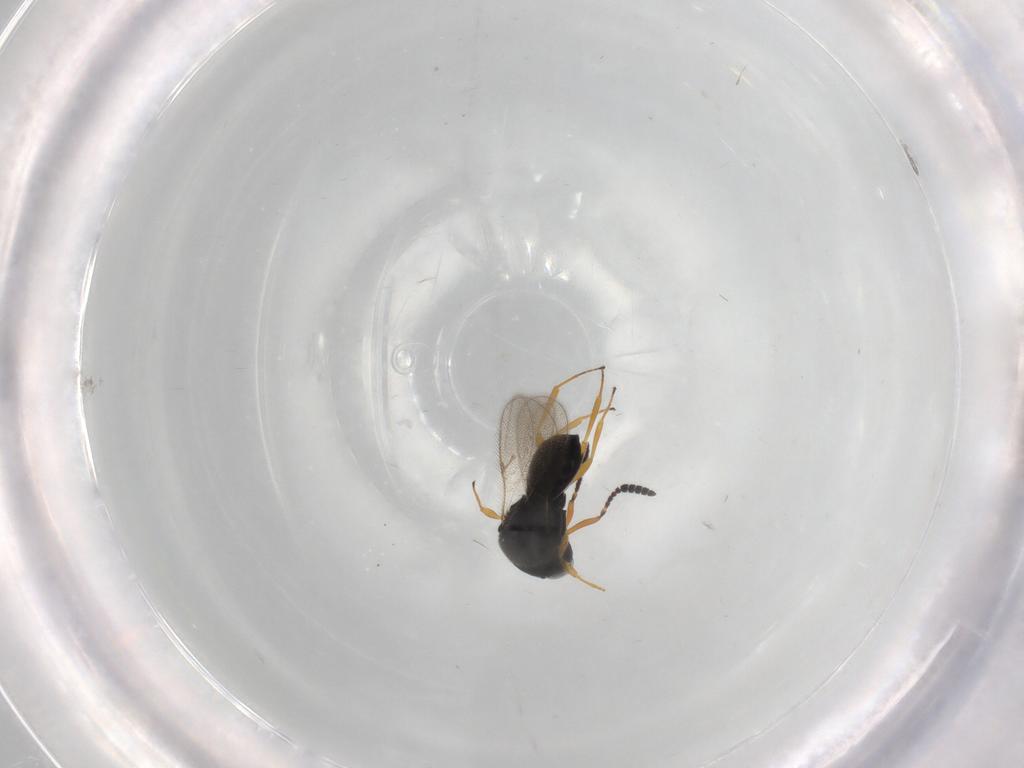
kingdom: Animalia
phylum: Arthropoda
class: Insecta
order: Hymenoptera
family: Scelionidae
